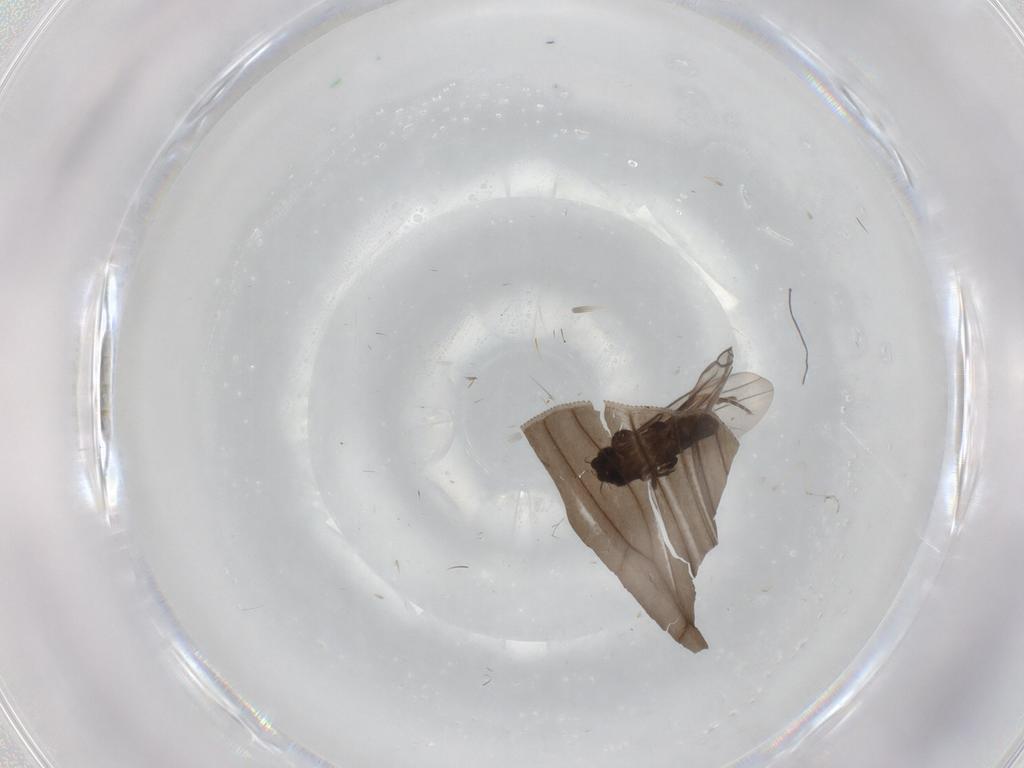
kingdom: Animalia
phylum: Arthropoda
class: Insecta
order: Diptera
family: Phoridae
